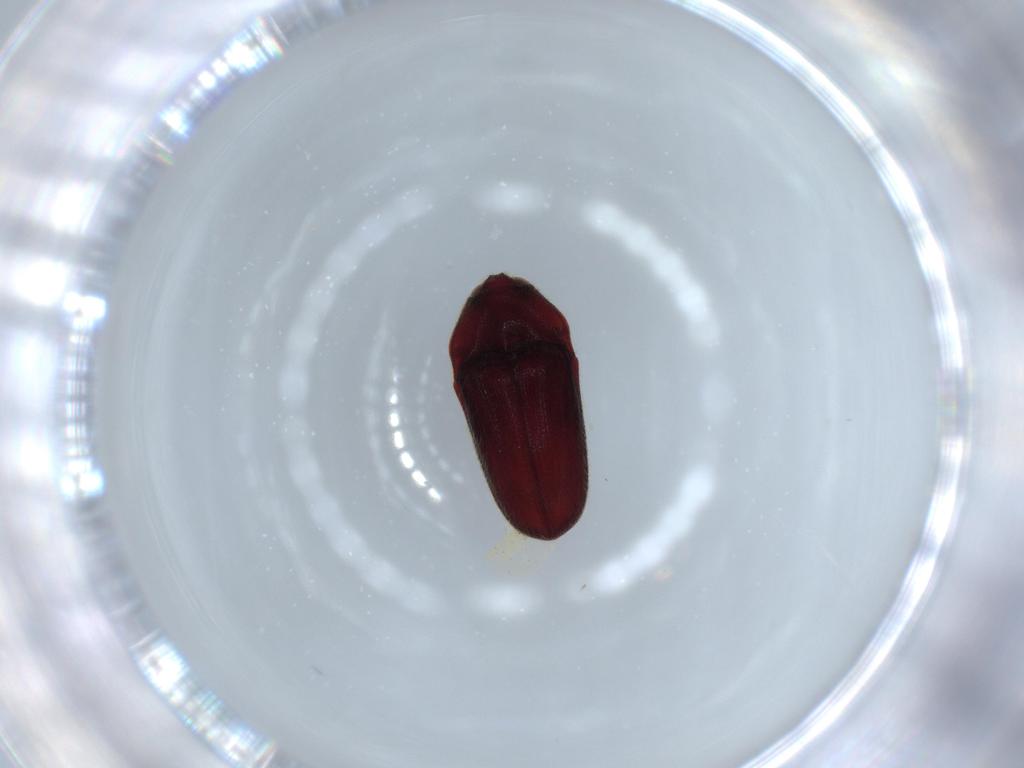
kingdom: Animalia
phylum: Arthropoda
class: Insecta
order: Coleoptera
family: Throscidae
